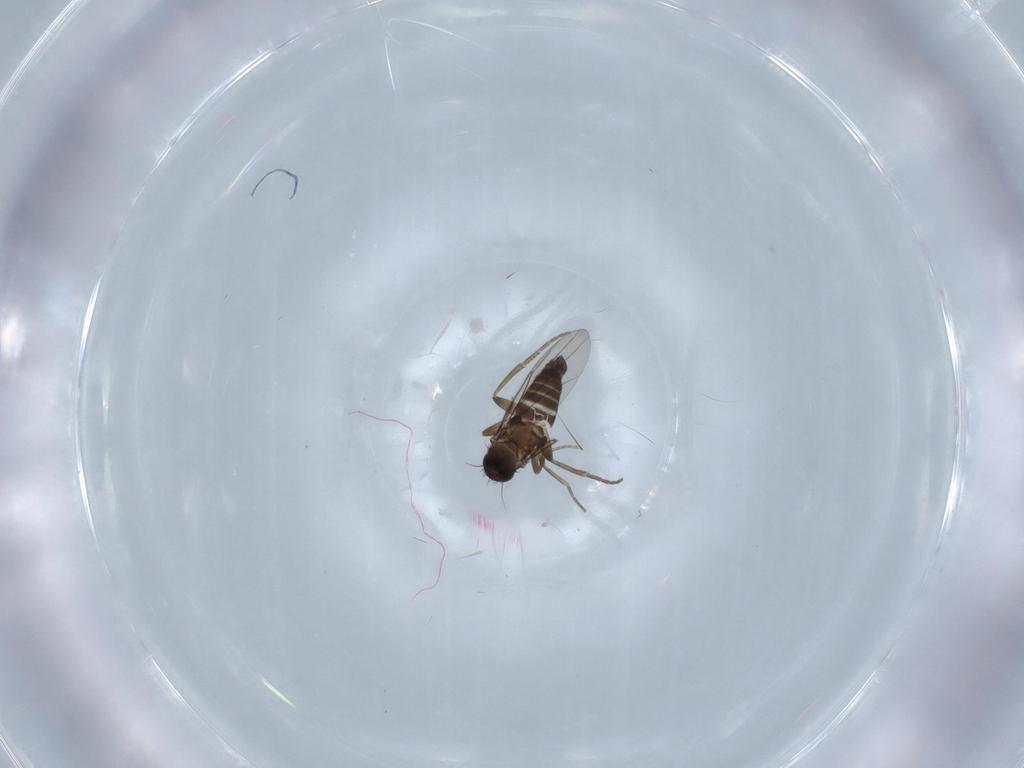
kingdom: Animalia
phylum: Arthropoda
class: Insecta
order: Diptera
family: Phoridae
